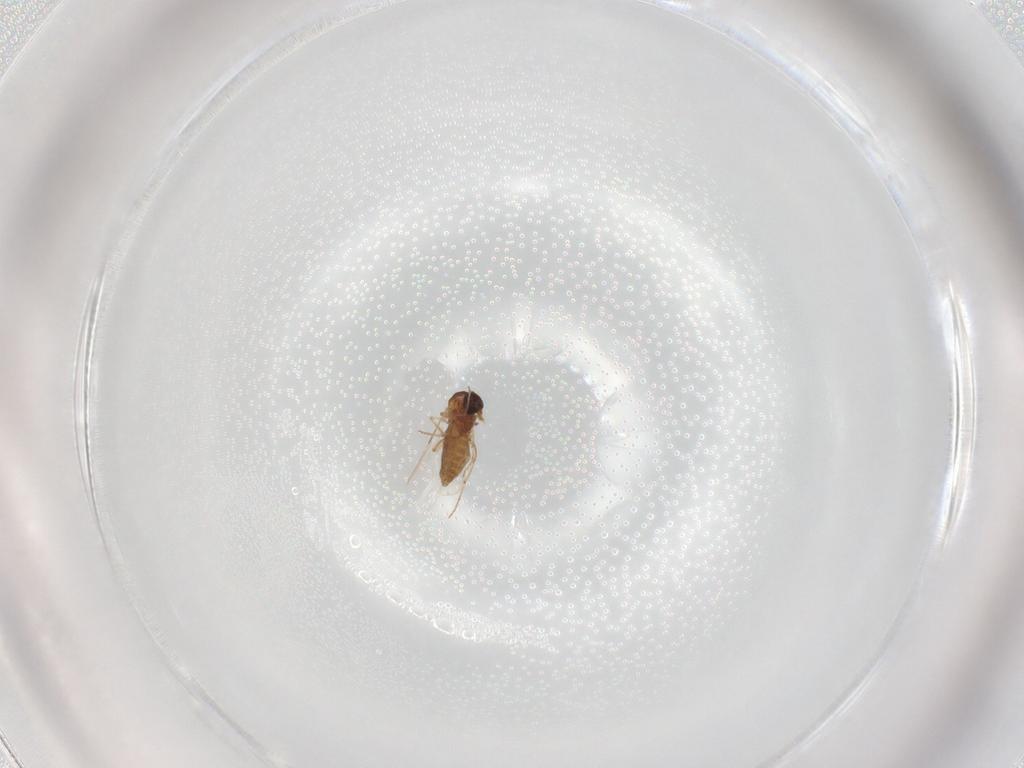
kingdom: Animalia
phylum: Arthropoda
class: Insecta
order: Diptera
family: Ceratopogonidae
